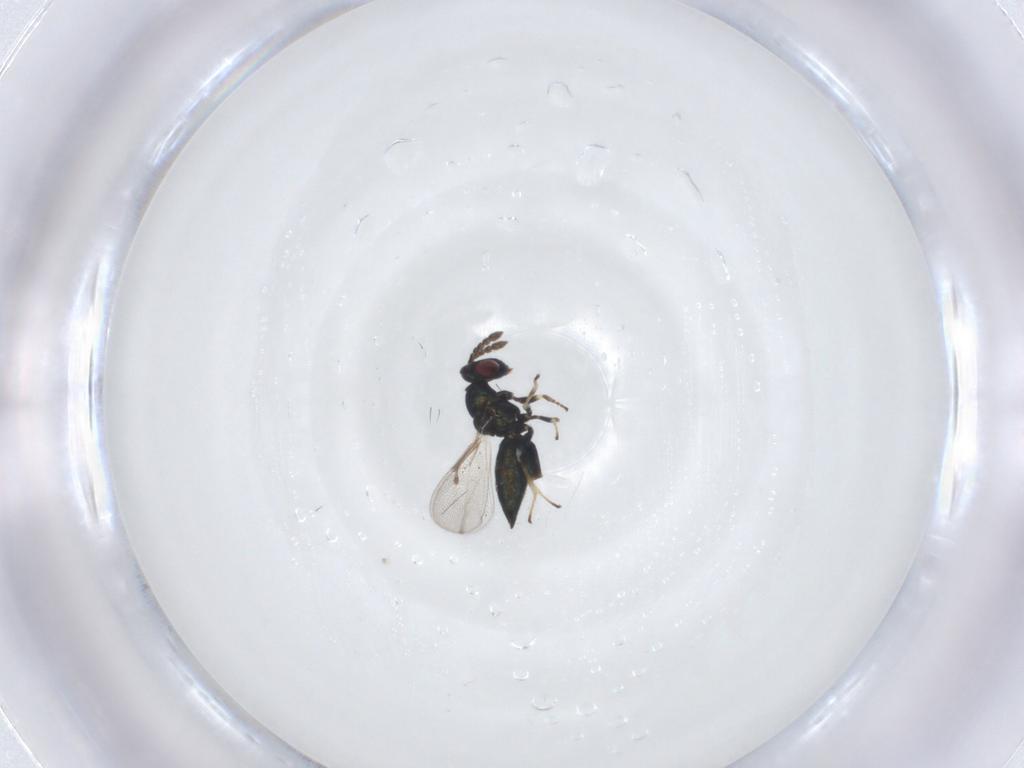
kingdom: Animalia
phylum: Arthropoda
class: Insecta
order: Hymenoptera
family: Eulophidae
